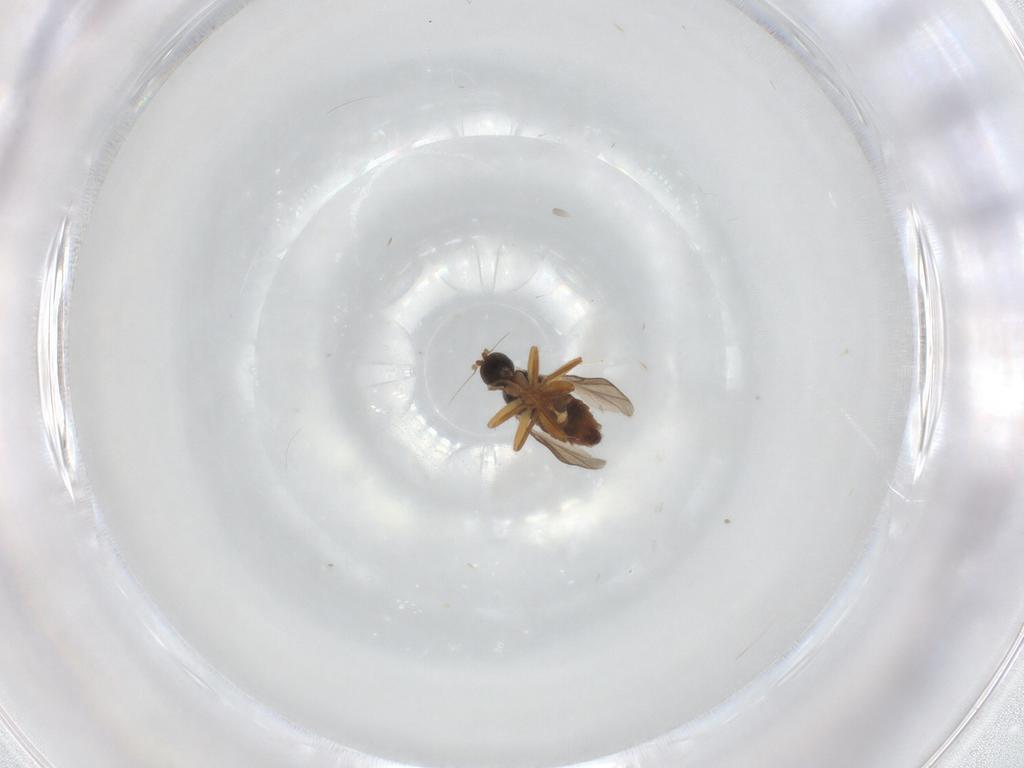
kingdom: Animalia
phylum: Arthropoda
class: Insecta
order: Diptera
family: Hybotidae
